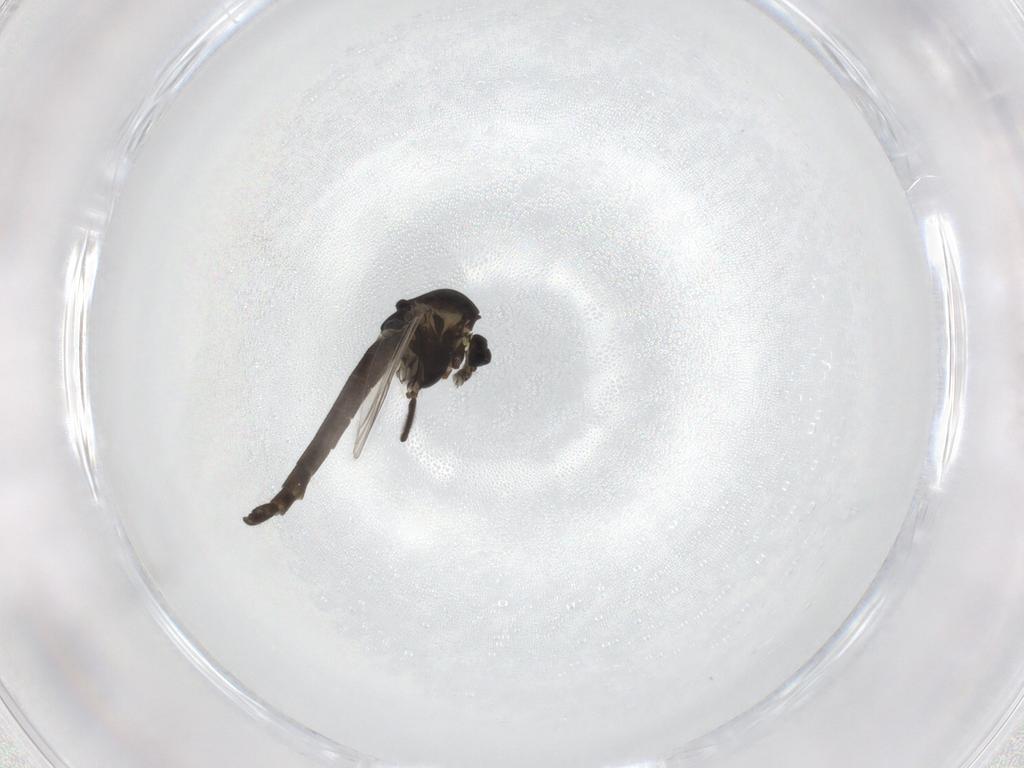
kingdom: Animalia
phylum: Arthropoda
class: Insecta
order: Diptera
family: Chironomidae
